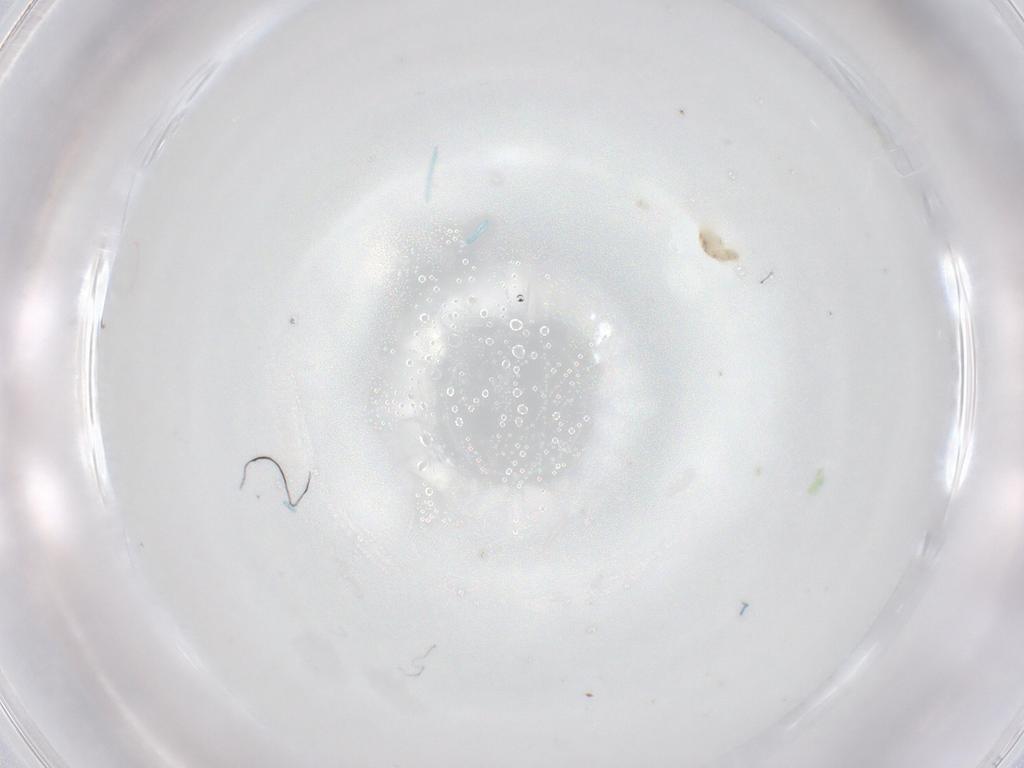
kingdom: Animalia
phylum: Arthropoda
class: Arachnida
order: Trombidiformes
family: Eupodidae
